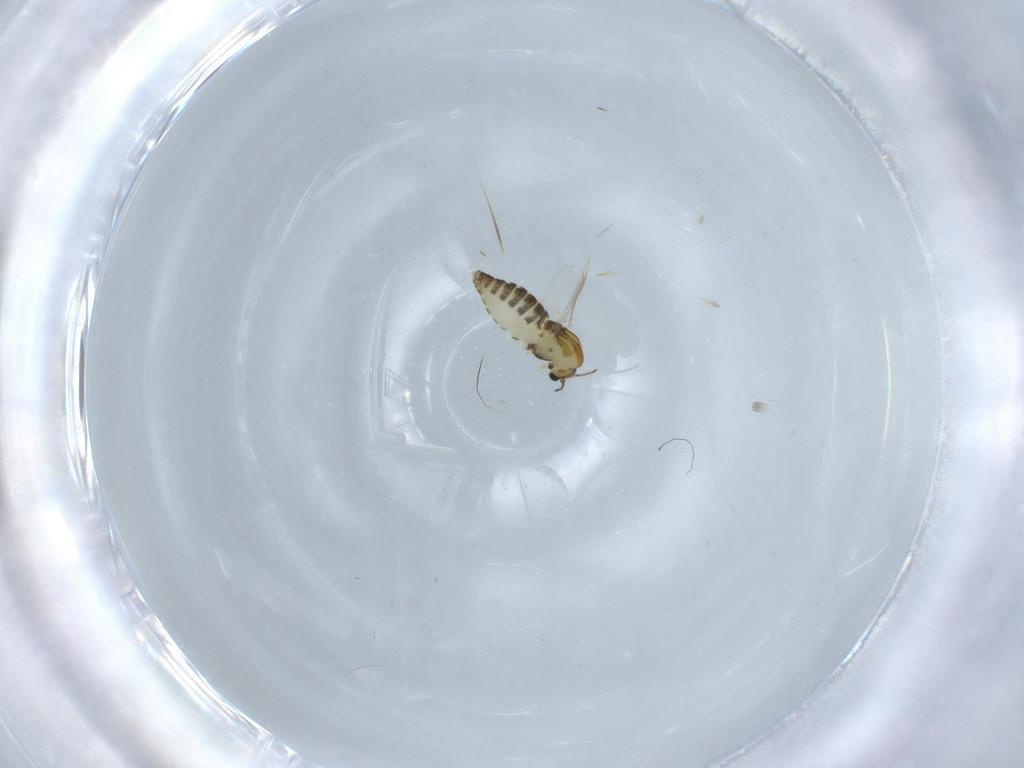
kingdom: Animalia
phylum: Arthropoda
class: Insecta
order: Diptera
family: Chironomidae
